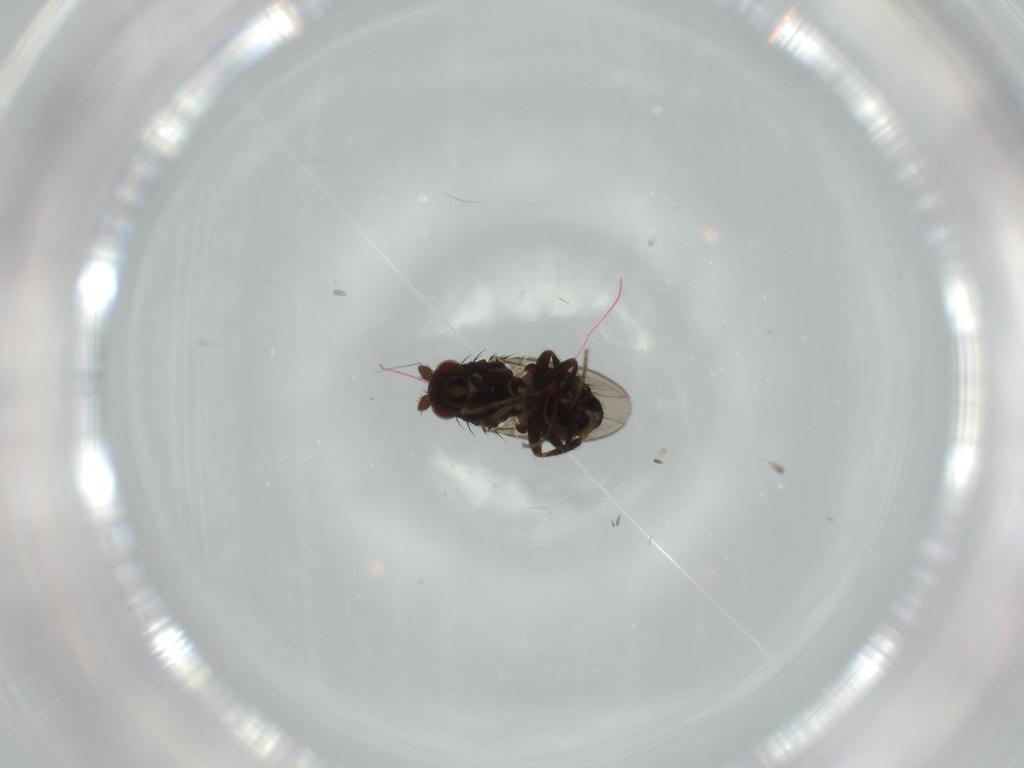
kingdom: Animalia
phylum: Arthropoda
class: Insecta
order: Diptera
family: Sphaeroceridae
